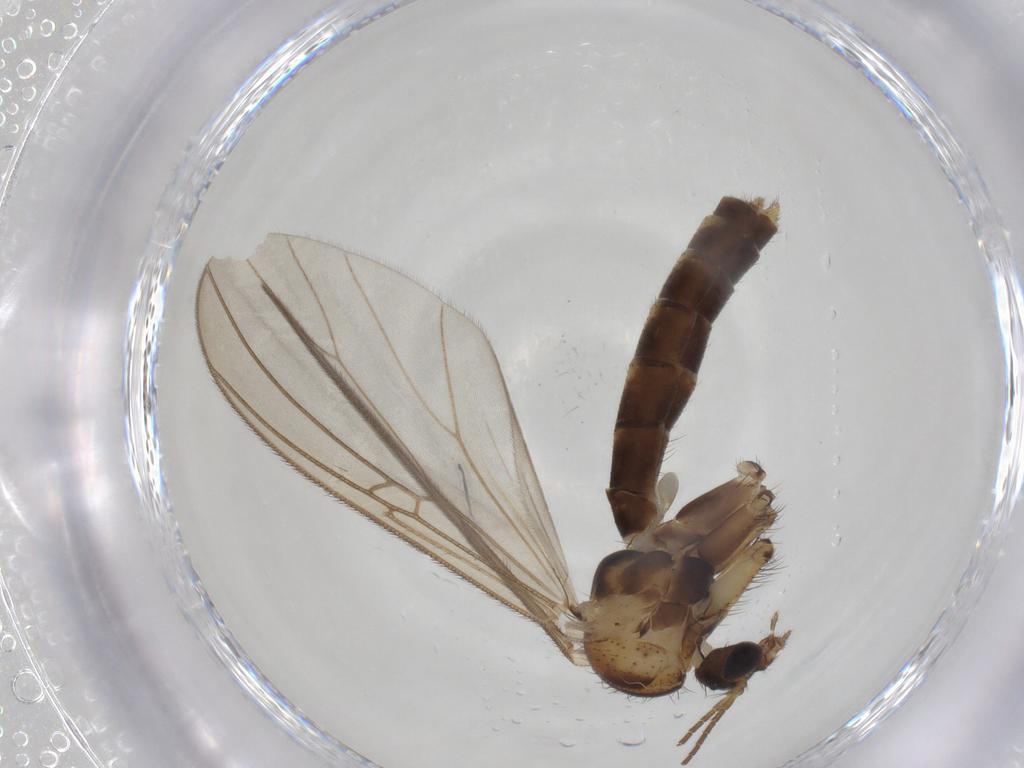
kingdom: Animalia
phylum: Arthropoda
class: Insecta
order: Diptera
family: Mycetophilidae
